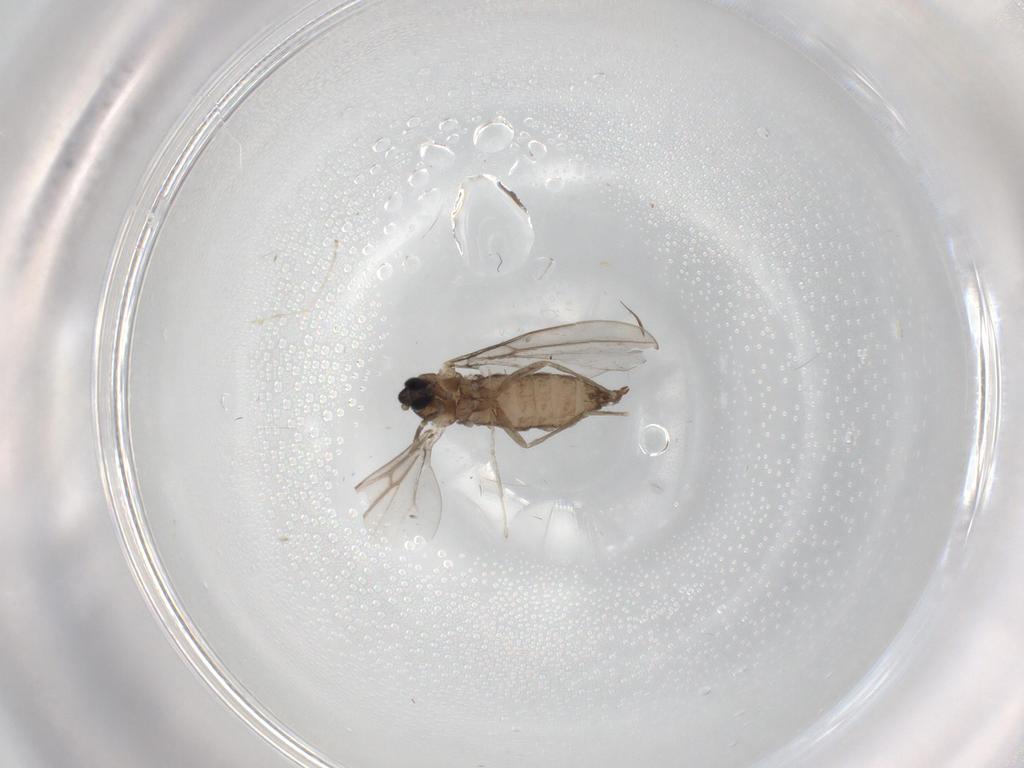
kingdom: Animalia
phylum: Arthropoda
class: Insecta
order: Diptera
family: Cecidomyiidae
